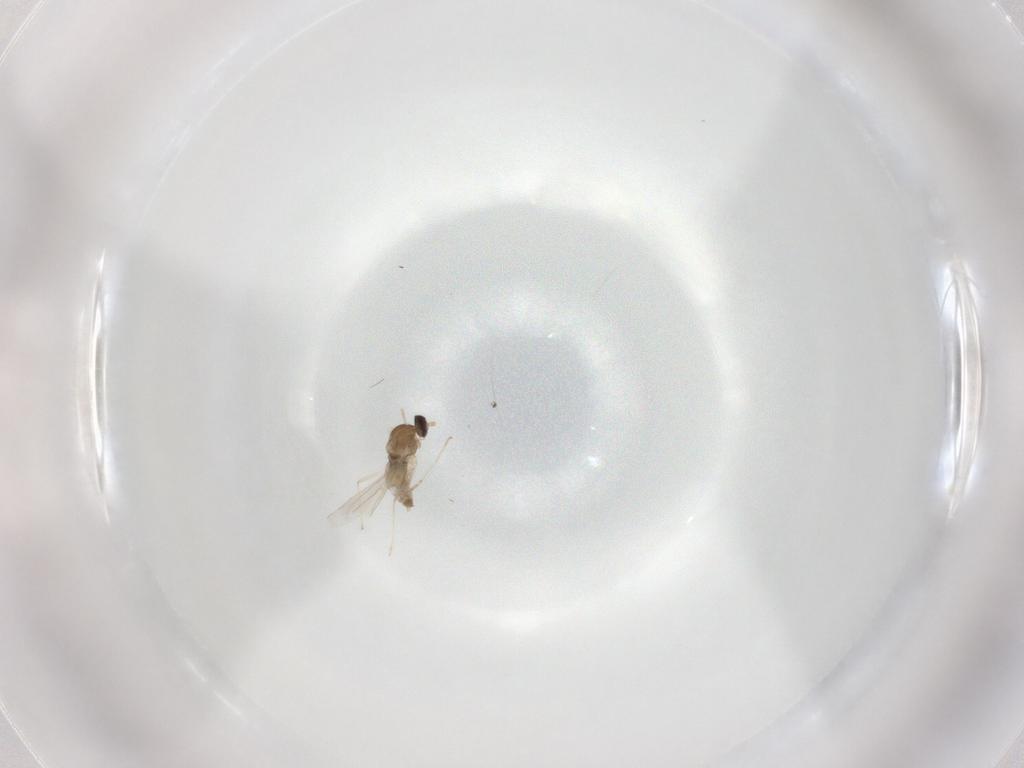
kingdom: Animalia
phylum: Arthropoda
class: Insecta
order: Diptera
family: Cecidomyiidae
